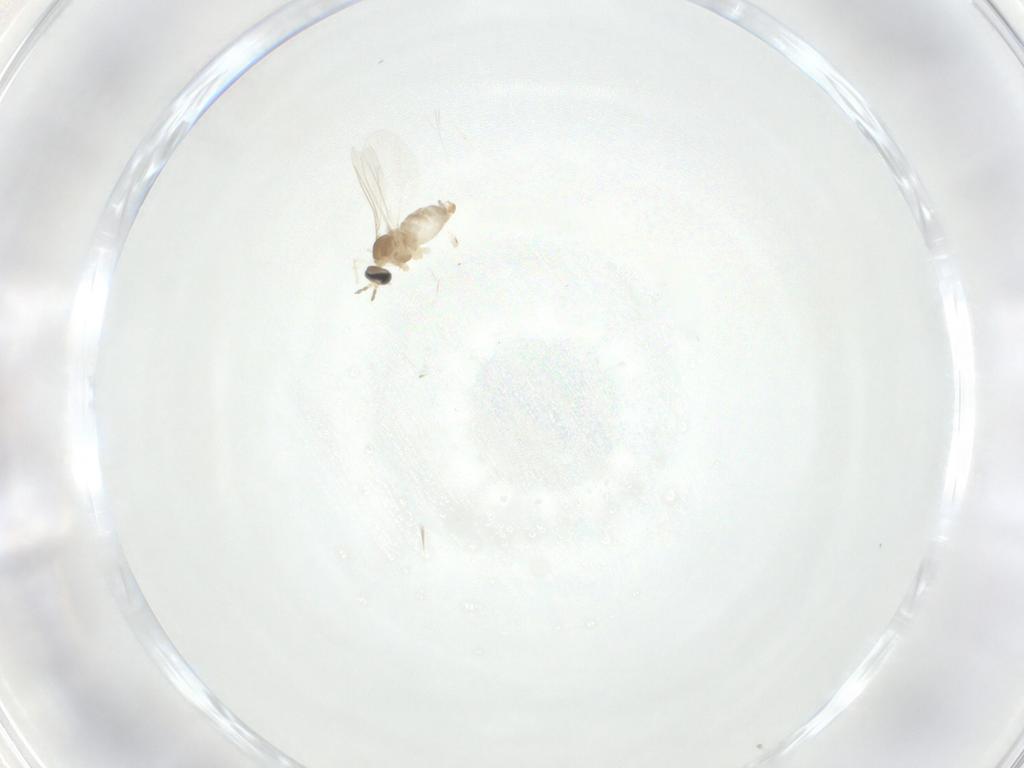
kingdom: Animalia
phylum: Arthropoda
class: Insecta
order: Diptera
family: Cecidomyiidae
